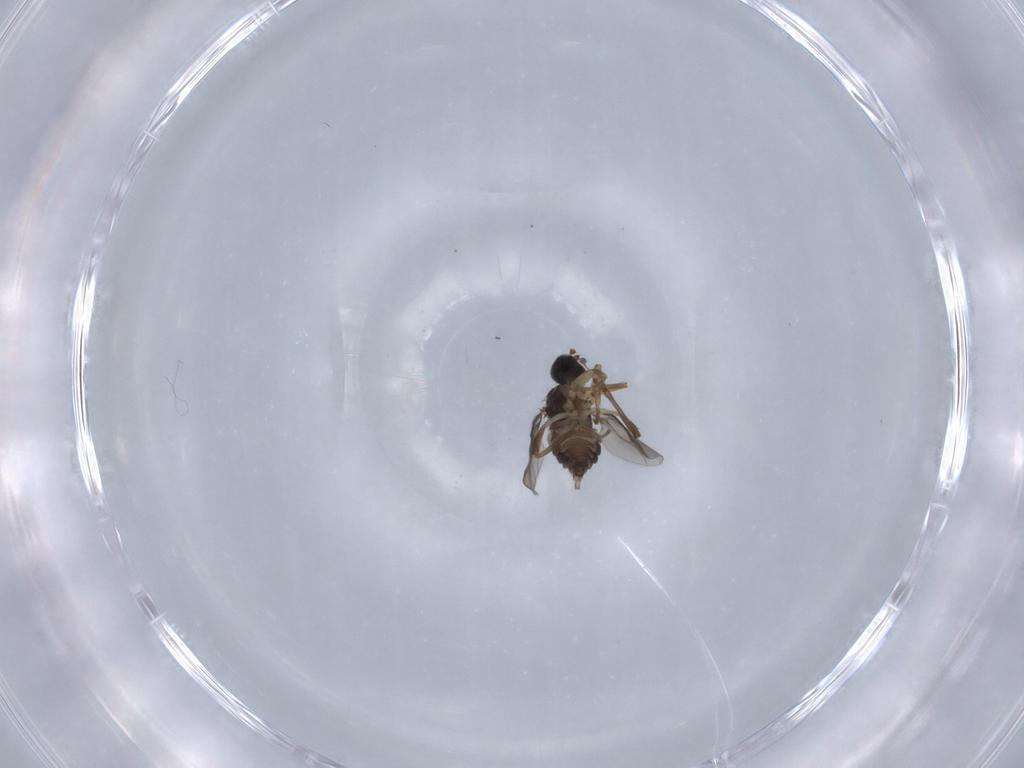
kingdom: Animalia
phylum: Arthropoda
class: Insecta
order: Diptera
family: Hybotidae
